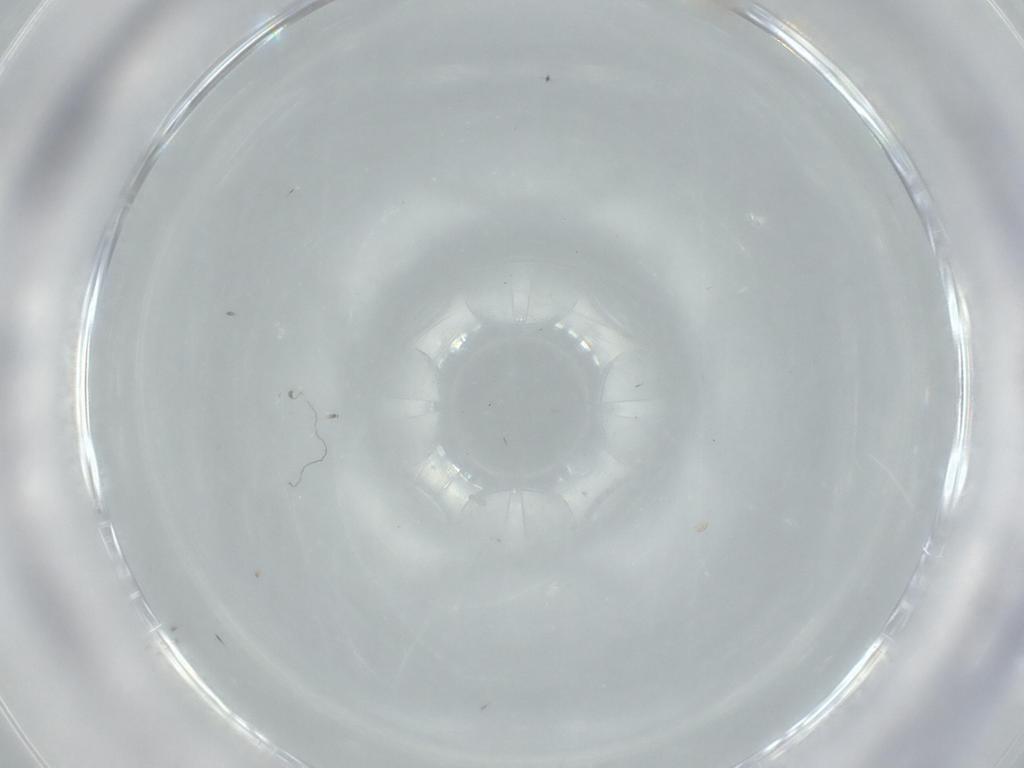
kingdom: Animalia
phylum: Arthropoda
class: Insecta
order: Psocodea
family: Lachesillidae
